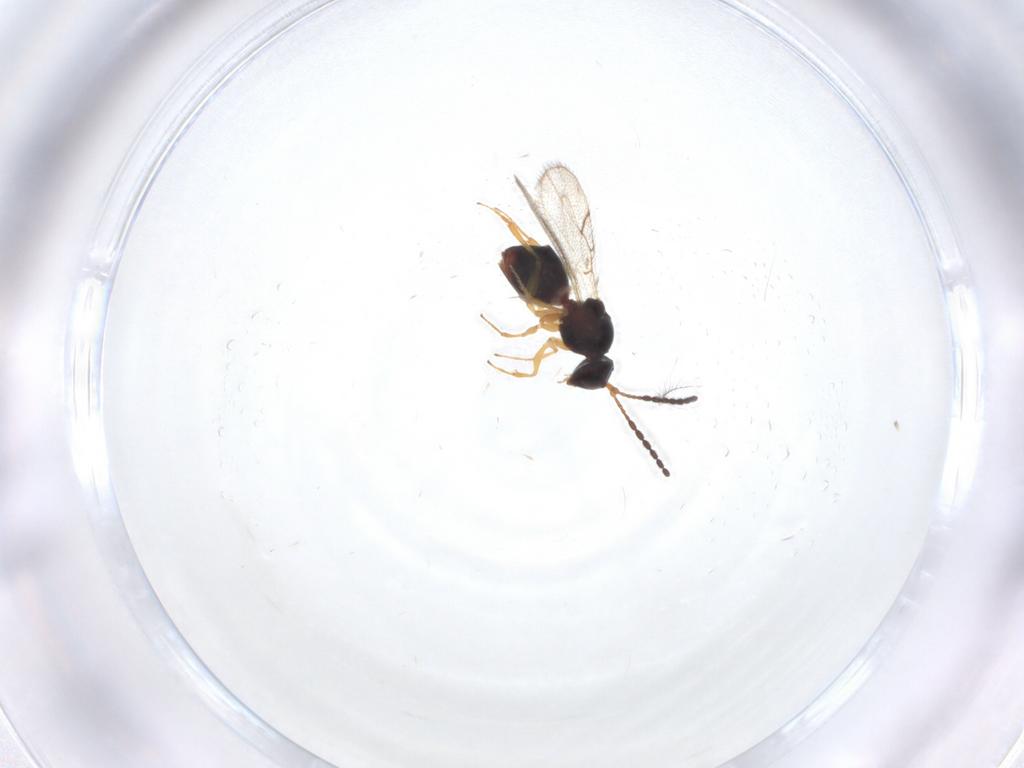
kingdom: Animalia
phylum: Arthropoda
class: Insecta
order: Hymenoptera
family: Figitidae
